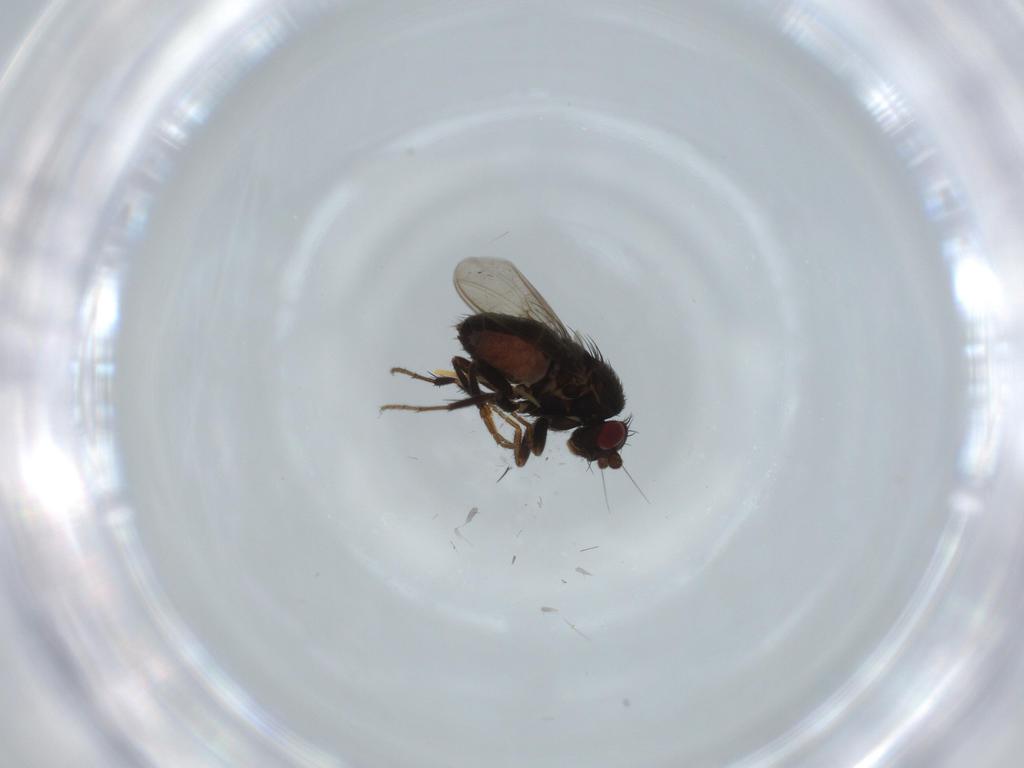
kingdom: Animalia
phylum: Arthropoda
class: Insecta
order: Diptera
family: Sphaeroceridae
